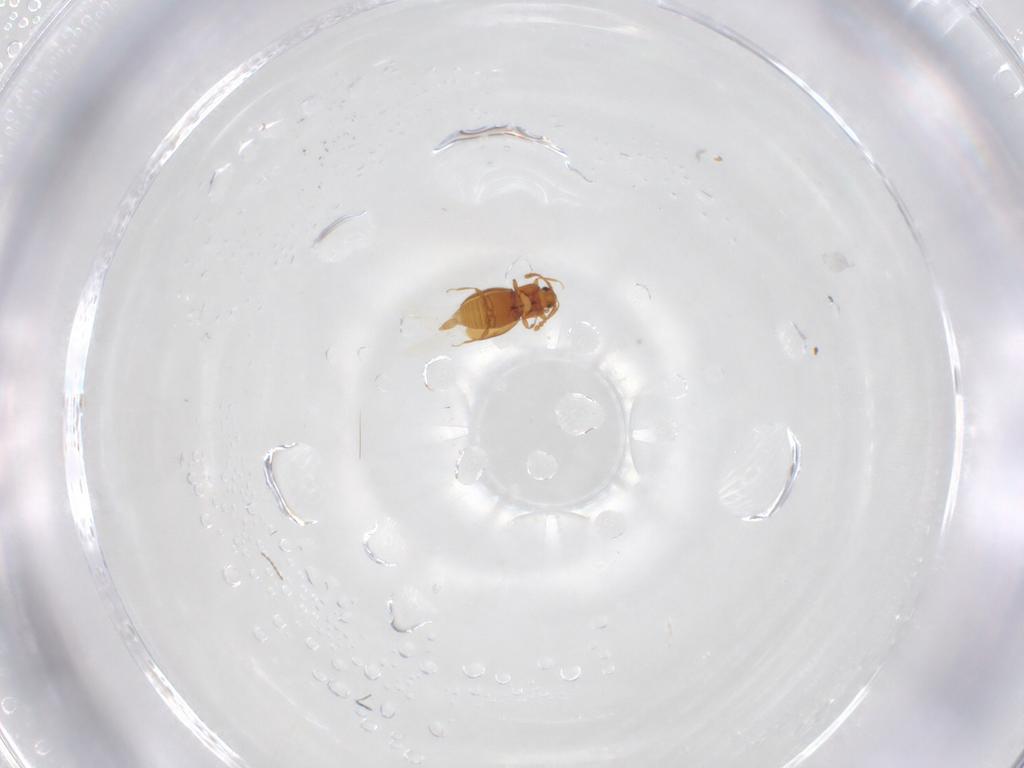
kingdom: Animalia
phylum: Arthropoda
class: Insecta
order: Coleoptera
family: Staphylinidae
